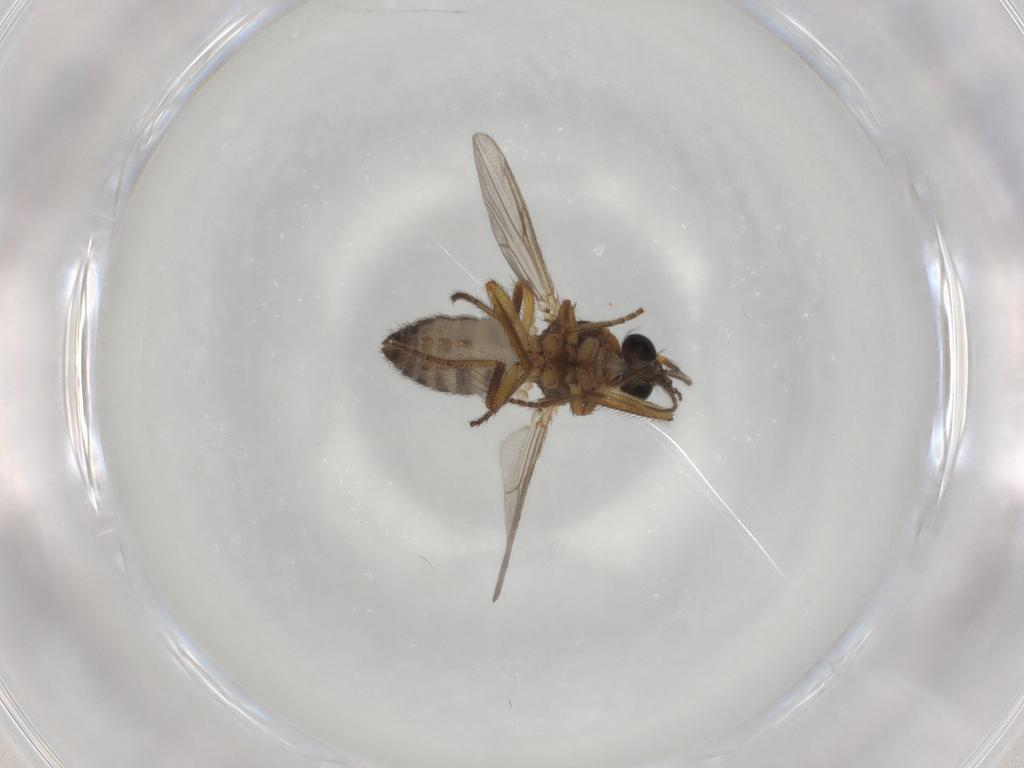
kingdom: Animalia
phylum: Arthropoda
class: Insecta
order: Diptera
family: Ceratopogonidae
